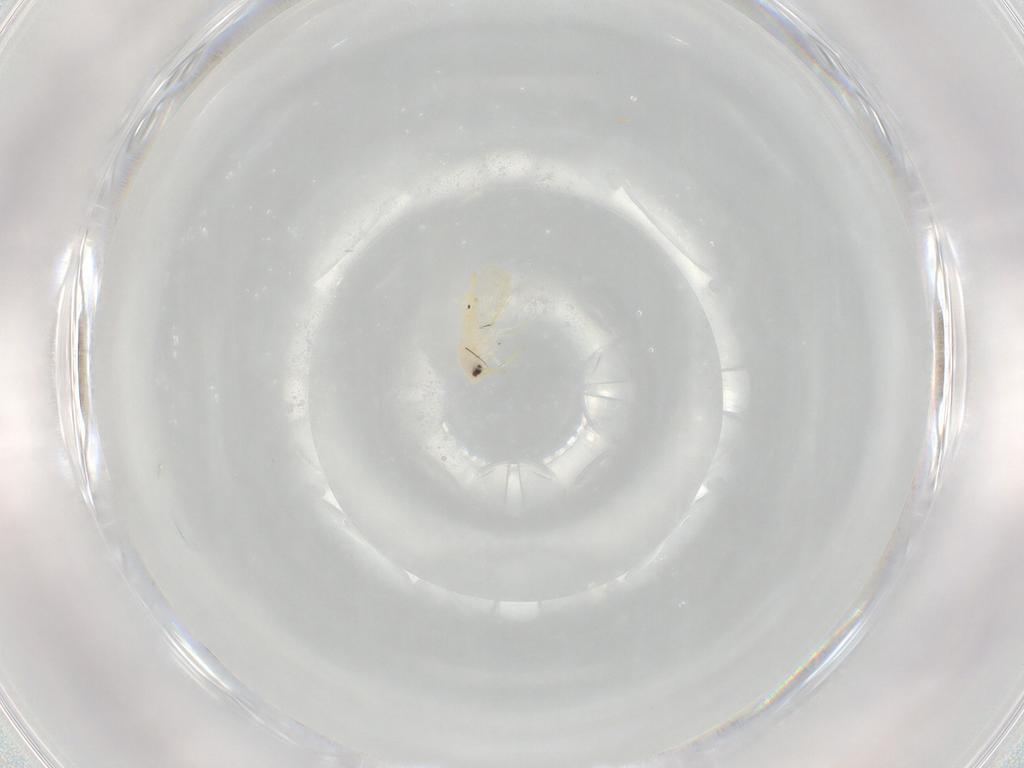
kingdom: Animalia
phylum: Arthropoda
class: Insecta
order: Hemiptera
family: Aleyrodidae
